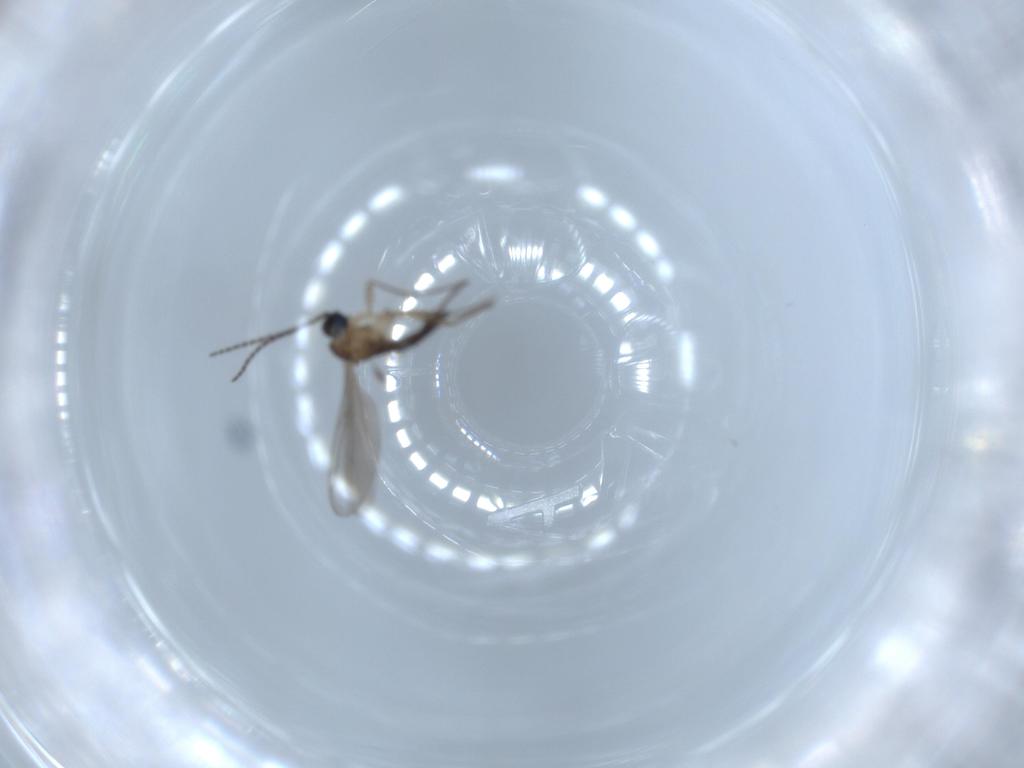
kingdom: Animalia
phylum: Arthropoda
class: Insecta
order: Diptera
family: Sciaridae
